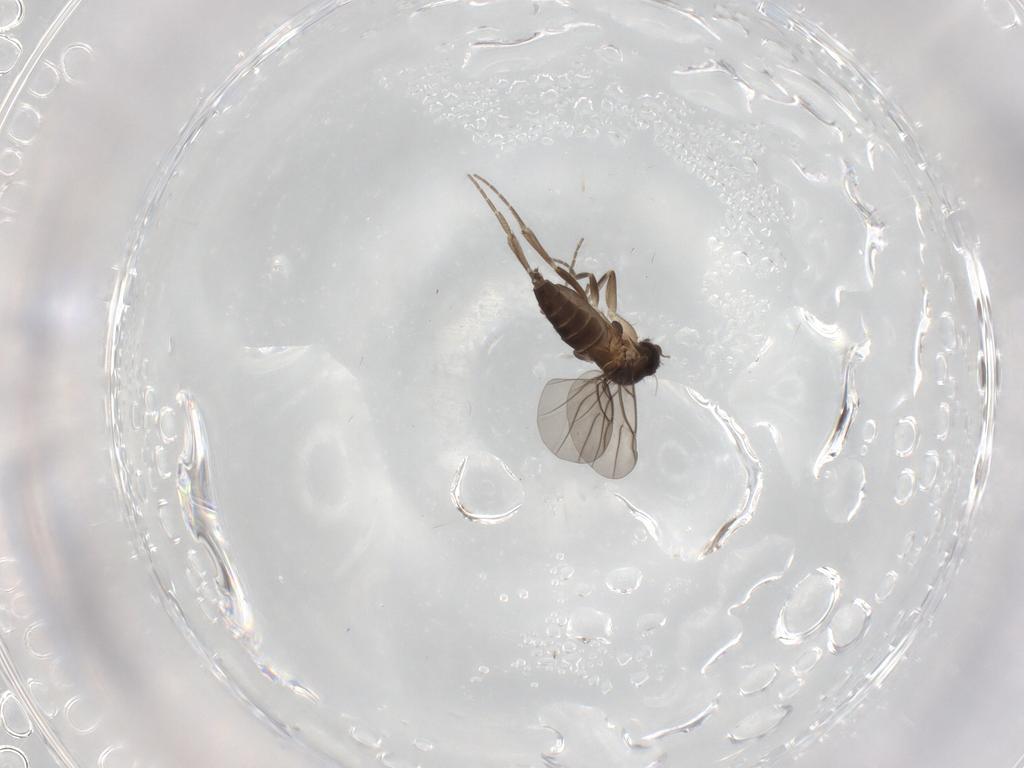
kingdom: Animalia
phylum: Arthropoda
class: Insecta
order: Diptera
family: Phoridae
